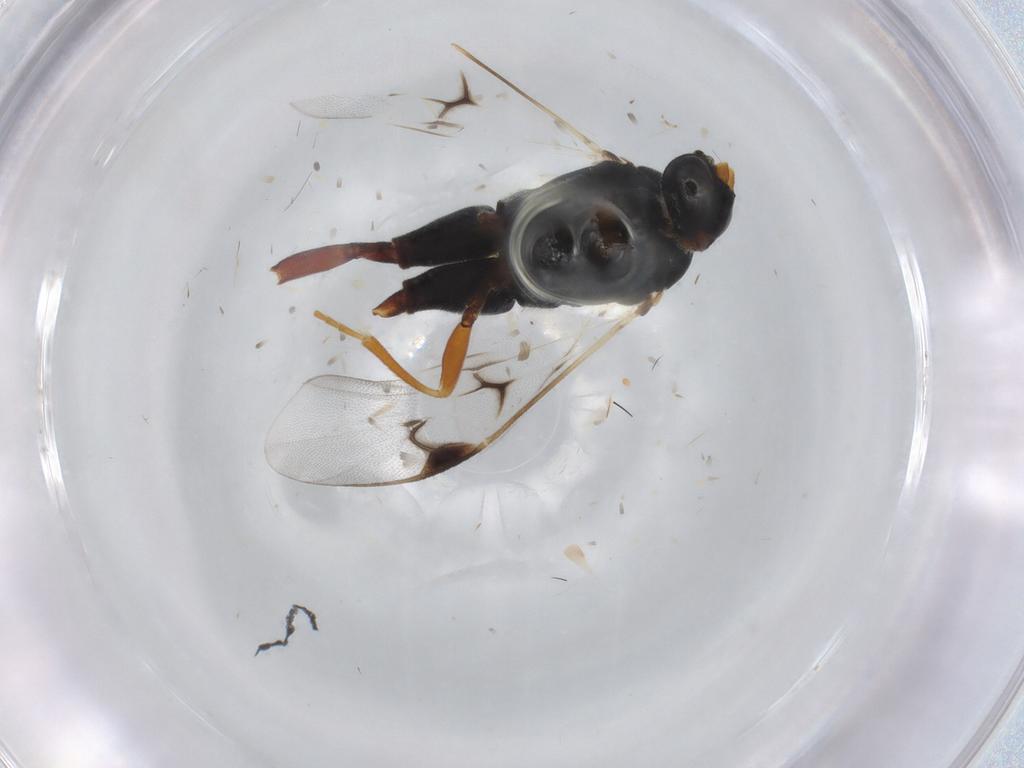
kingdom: Animalia
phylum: Arthropoda
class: Insecta
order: Hymenoptera
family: Braconidae
